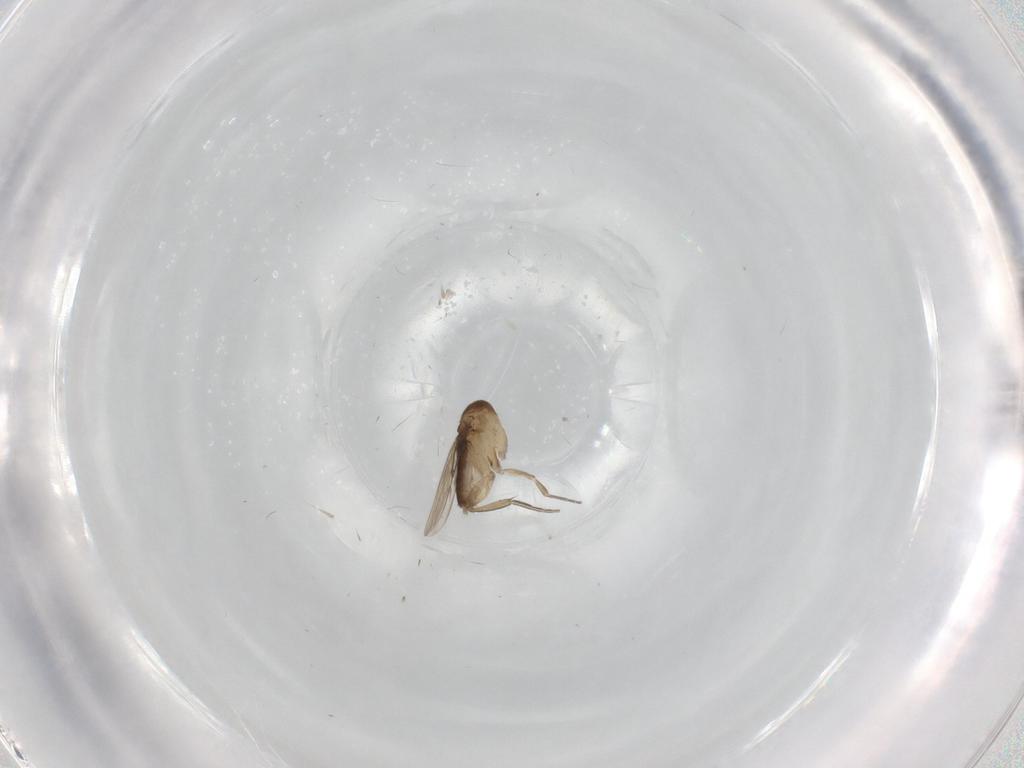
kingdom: Animalia
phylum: Arthropoda
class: Insecta
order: Diptera
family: Phoridae
